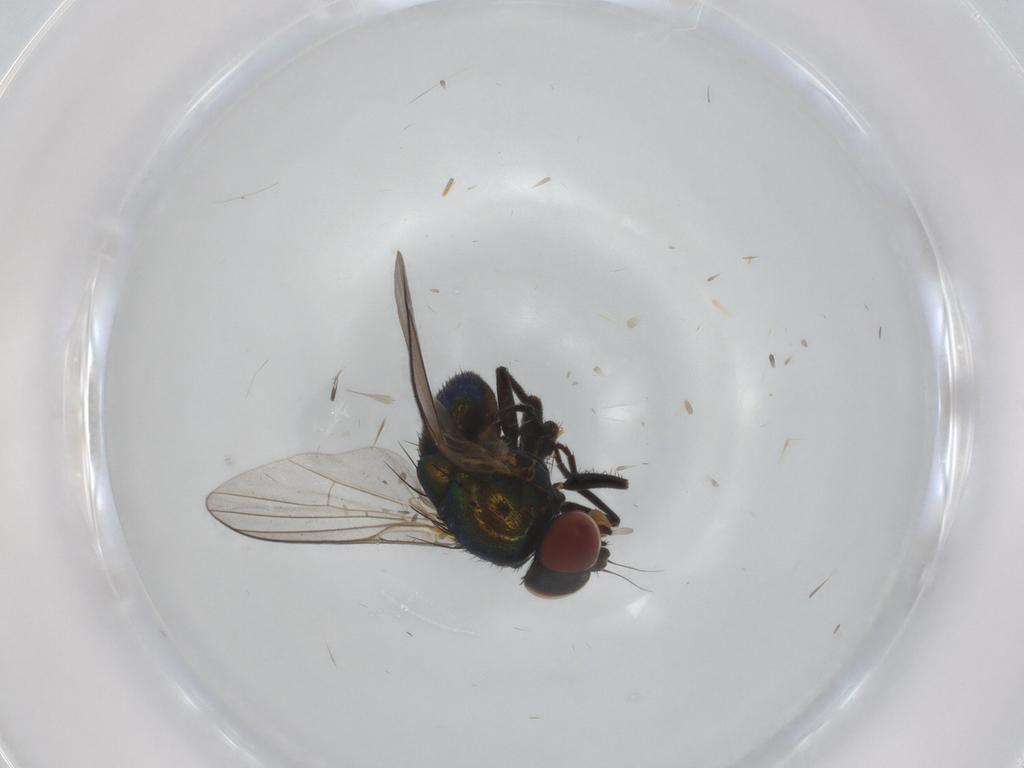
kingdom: Animalia
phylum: Arthropoda
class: Insecta
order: Diptera
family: Agromyzidae
